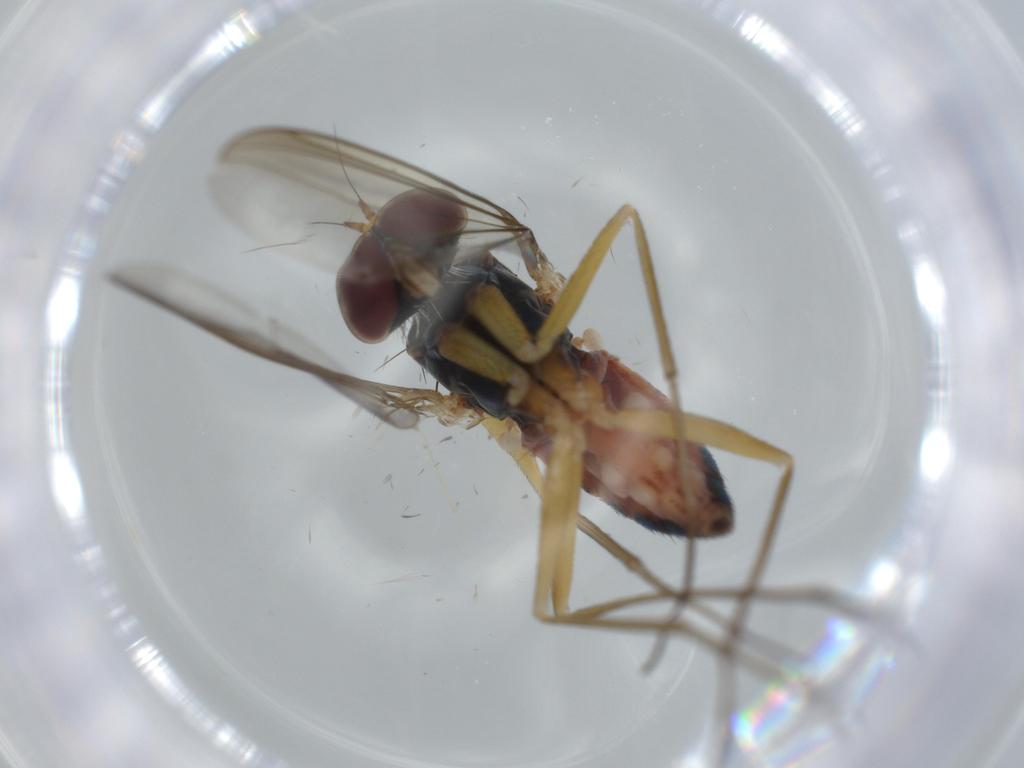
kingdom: Animalia
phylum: Arthropoda
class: Insecta
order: Diptera
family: Dolichopodidae
